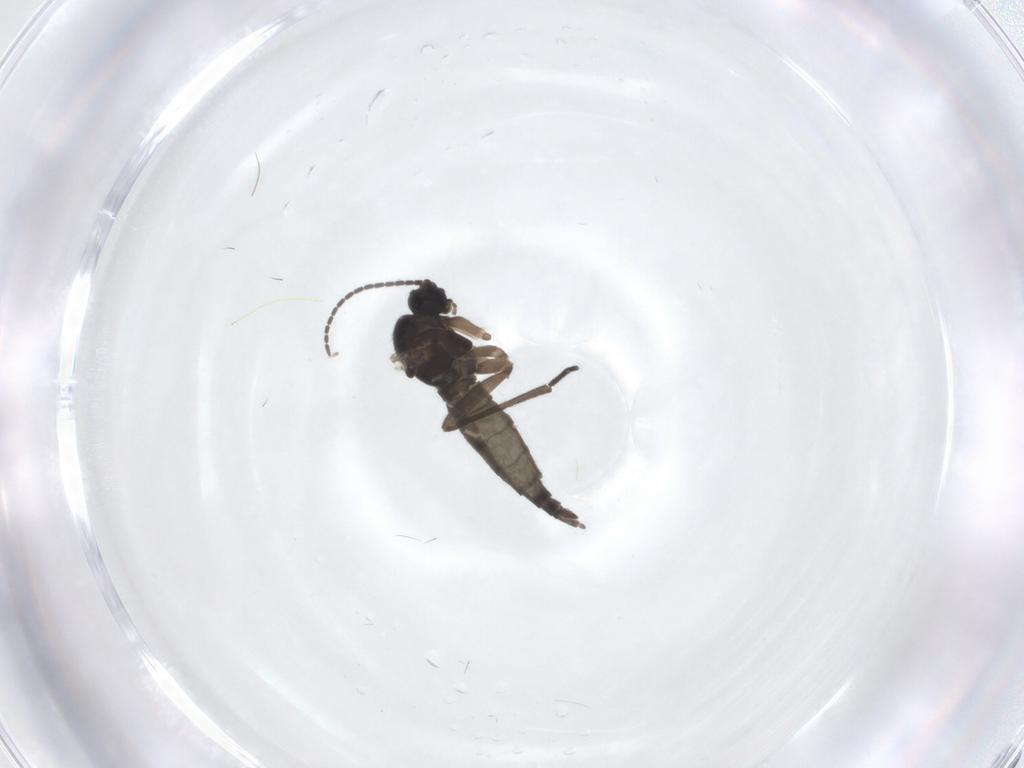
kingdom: Animalia
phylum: Arthropoda
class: Insecta
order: Diptera
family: Sciaridae
